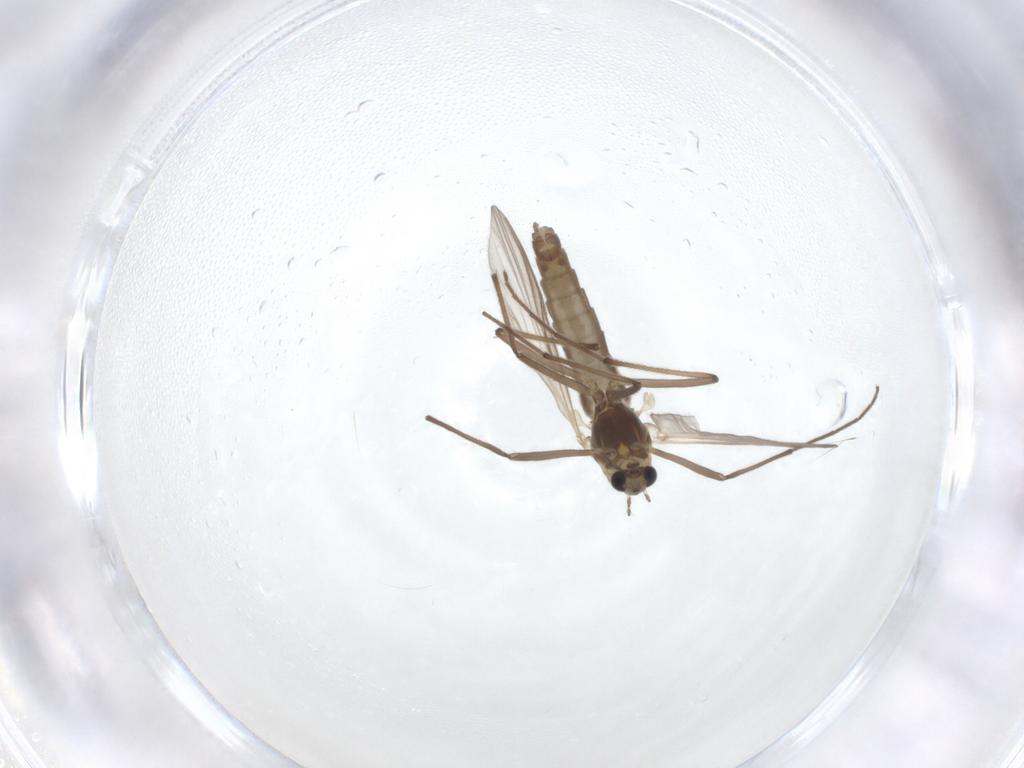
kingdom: Animalia
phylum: Arthropoda
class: Insecta
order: Diptera
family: Chironomidae
